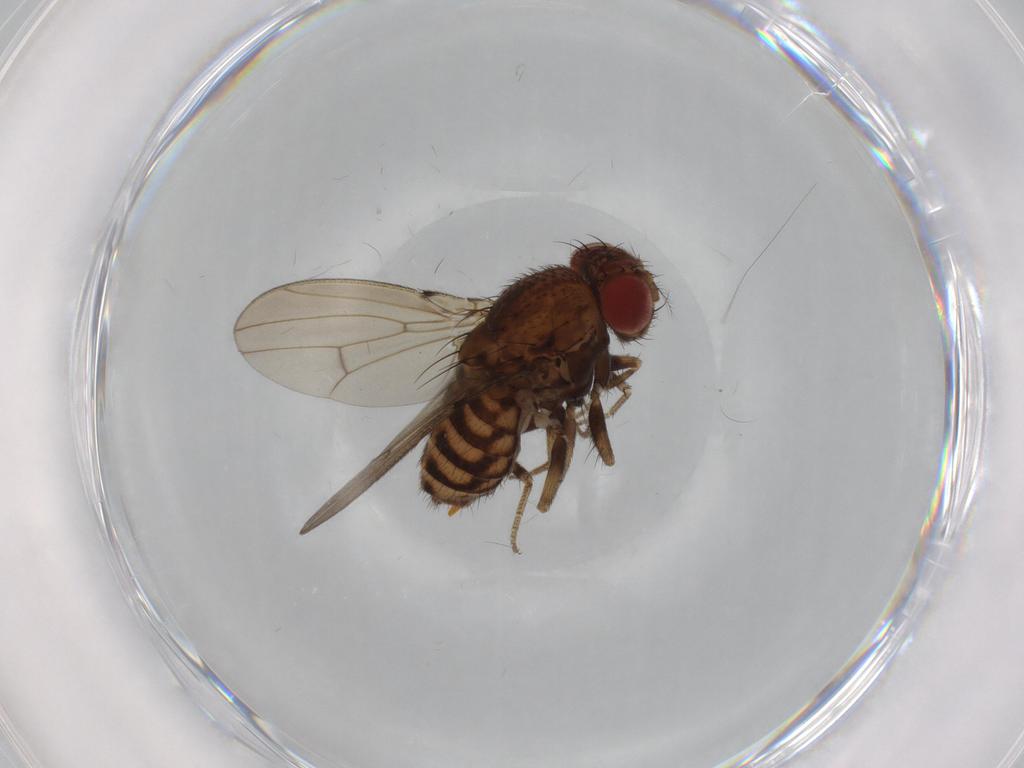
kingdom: Animalia
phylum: Arthropoda
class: Insecta
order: Diptera
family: Drosophilidae
